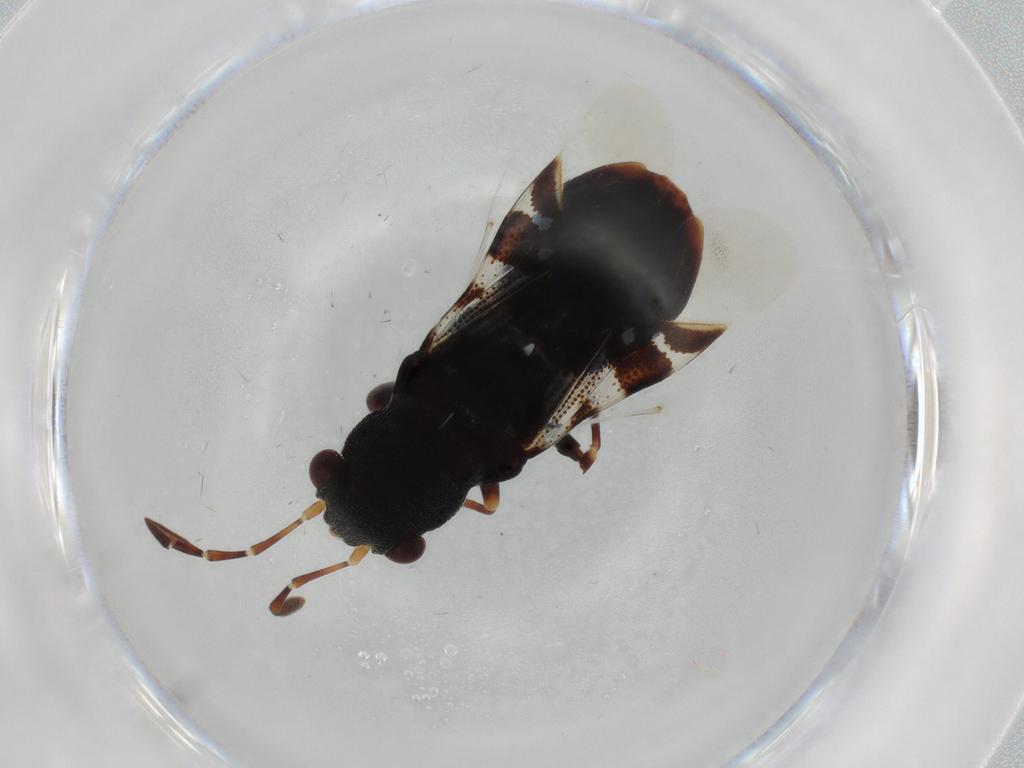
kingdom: Animalia
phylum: Arthropoda
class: Insecta
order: Hemiptera
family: Rhyparochromidae
